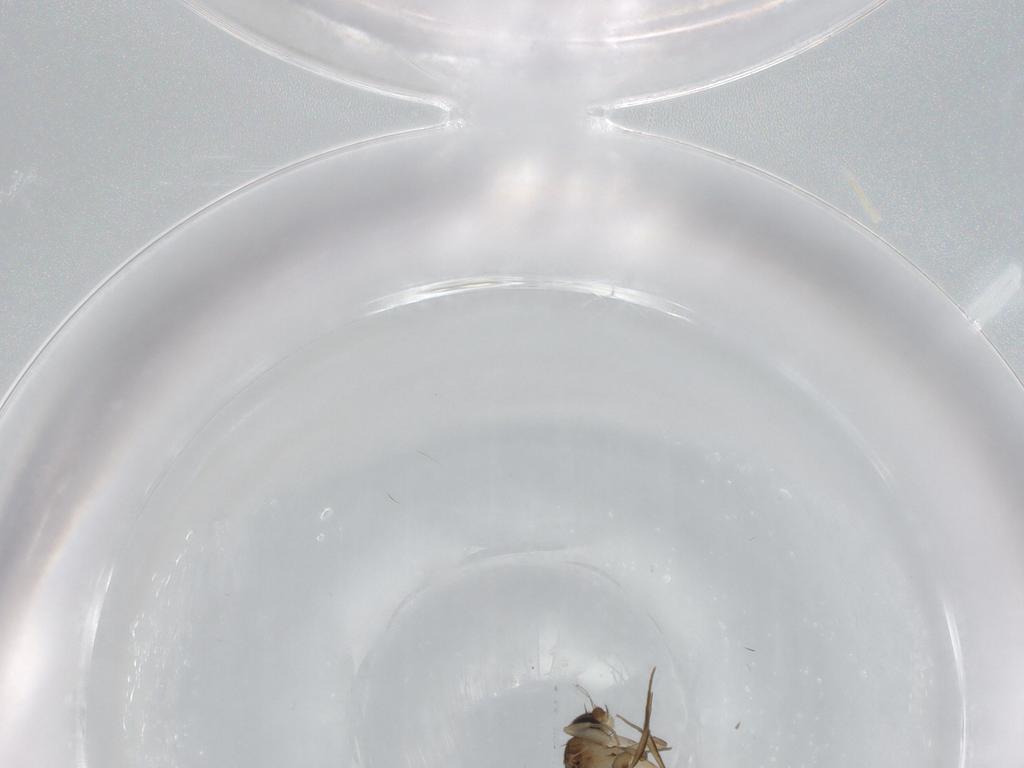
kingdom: Animalia
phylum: Arthropoda
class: Insecta
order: Diptera
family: Phoridae
